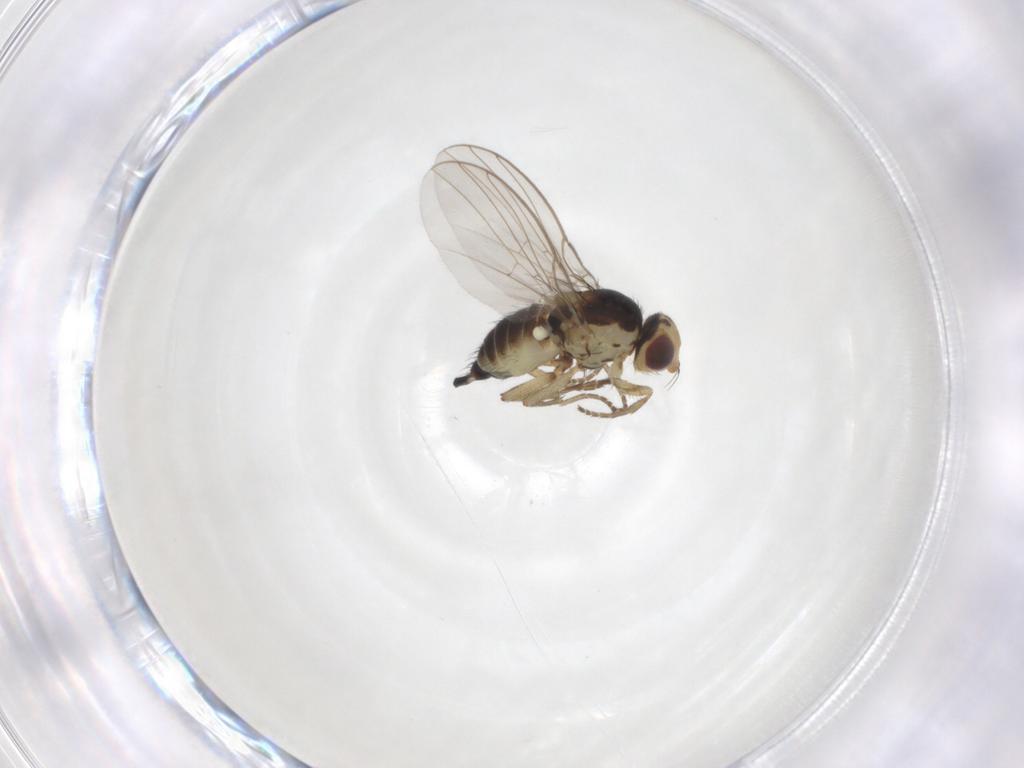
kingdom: Animalia
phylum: Arthropoda
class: Insecta
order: Diptera
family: Agromyzidae
